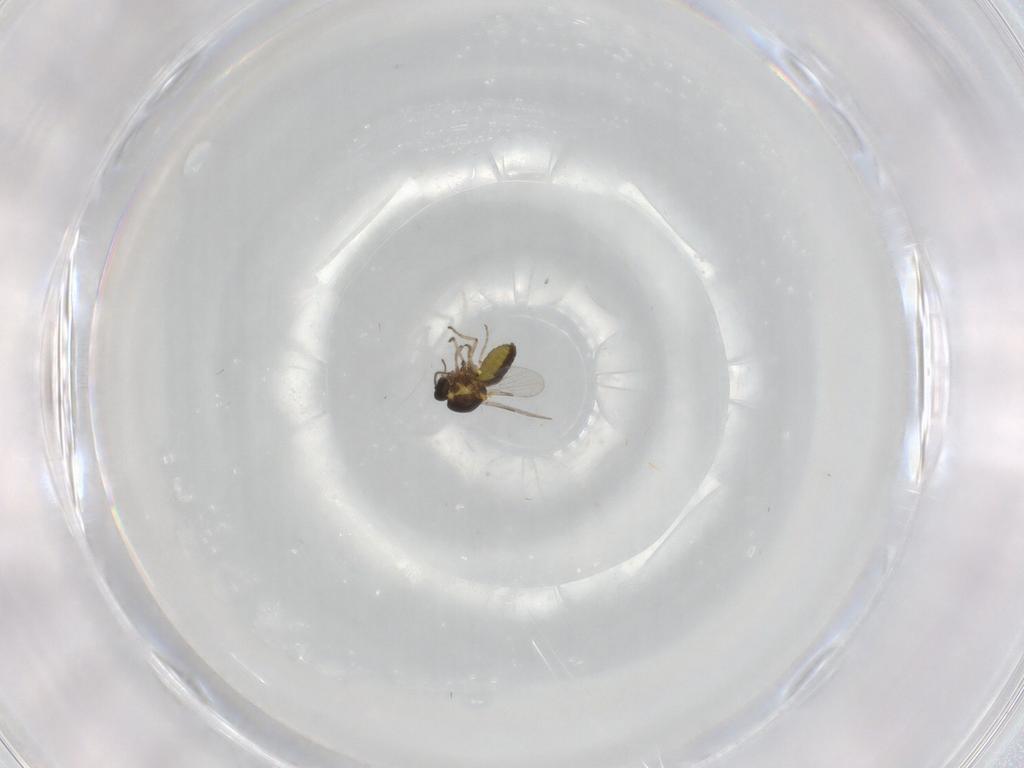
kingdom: Animalia
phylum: Arthropoda
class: Insecta
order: Diptera
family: Ceratopogonidae
